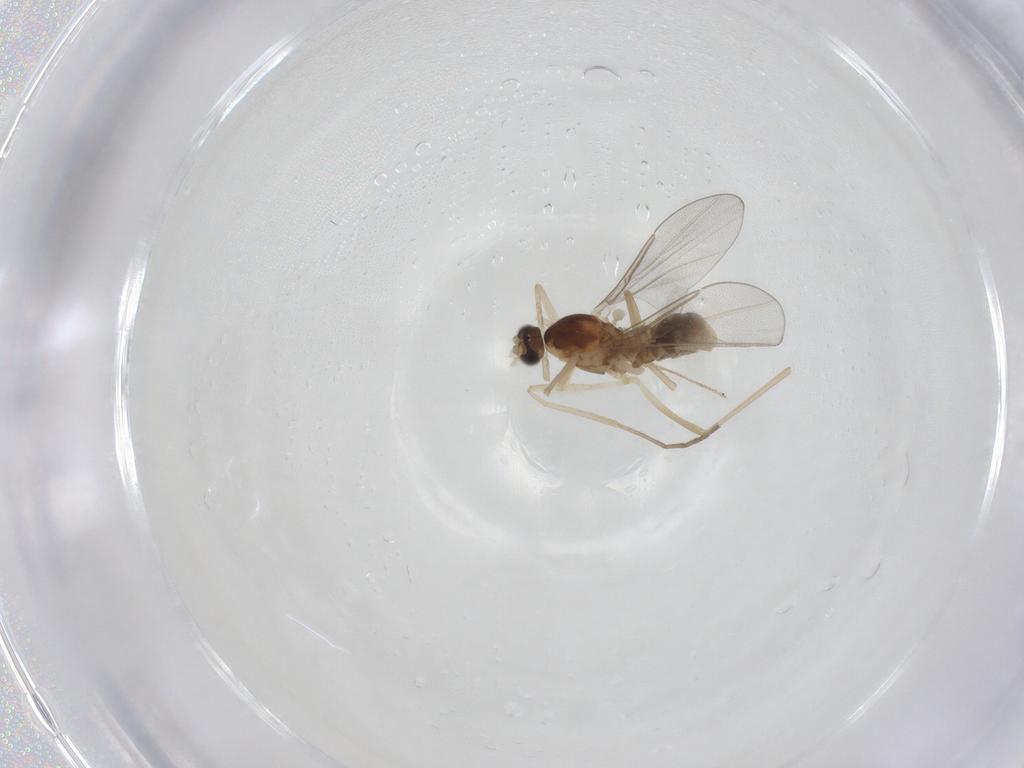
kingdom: Animalia
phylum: Arthropoda
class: Insecta
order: Diptera
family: Cecidomyiidae
